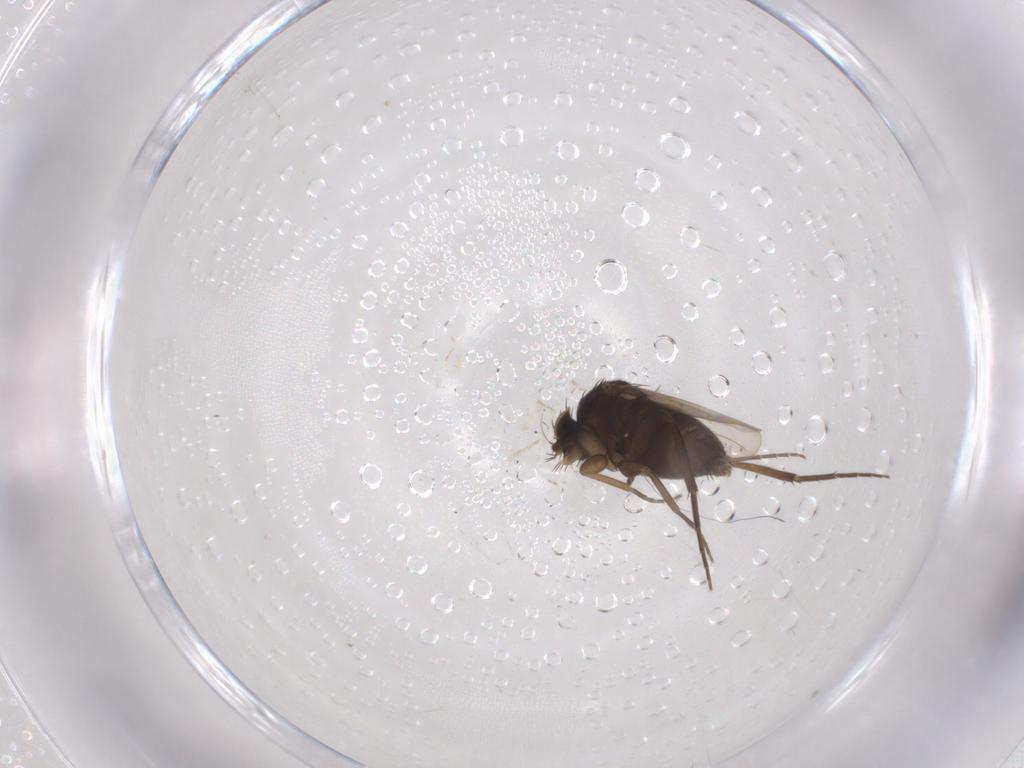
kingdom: Animalia
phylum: Arthropoda
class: Insecta
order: Diptera
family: Phoridae
